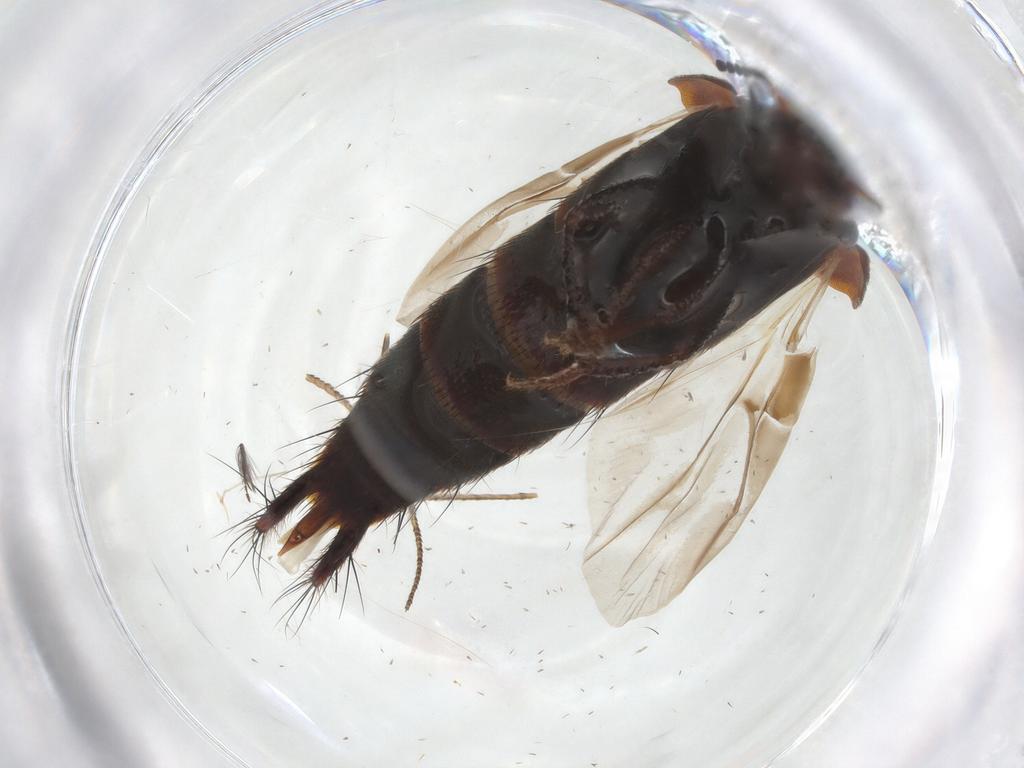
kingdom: Animalia
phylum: Arthropoda
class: Insecta
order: Coleoptera
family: Staphylinidae
